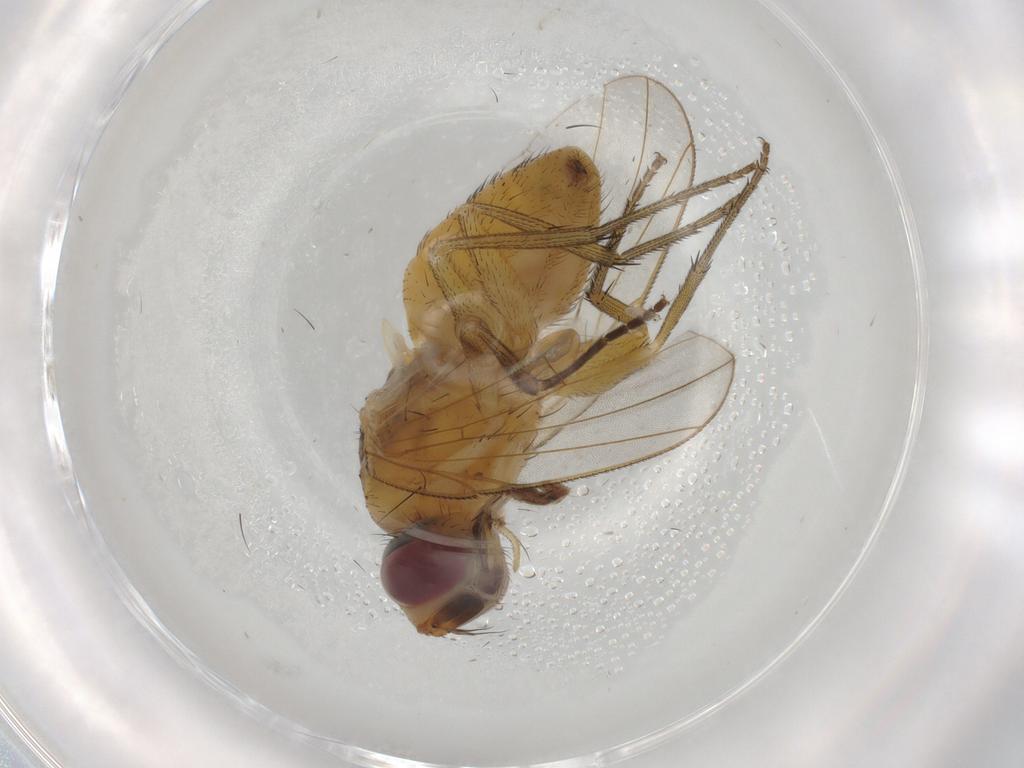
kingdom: Animalia
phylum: Arthropoda
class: Insecta
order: Diptera
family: Muscidae
